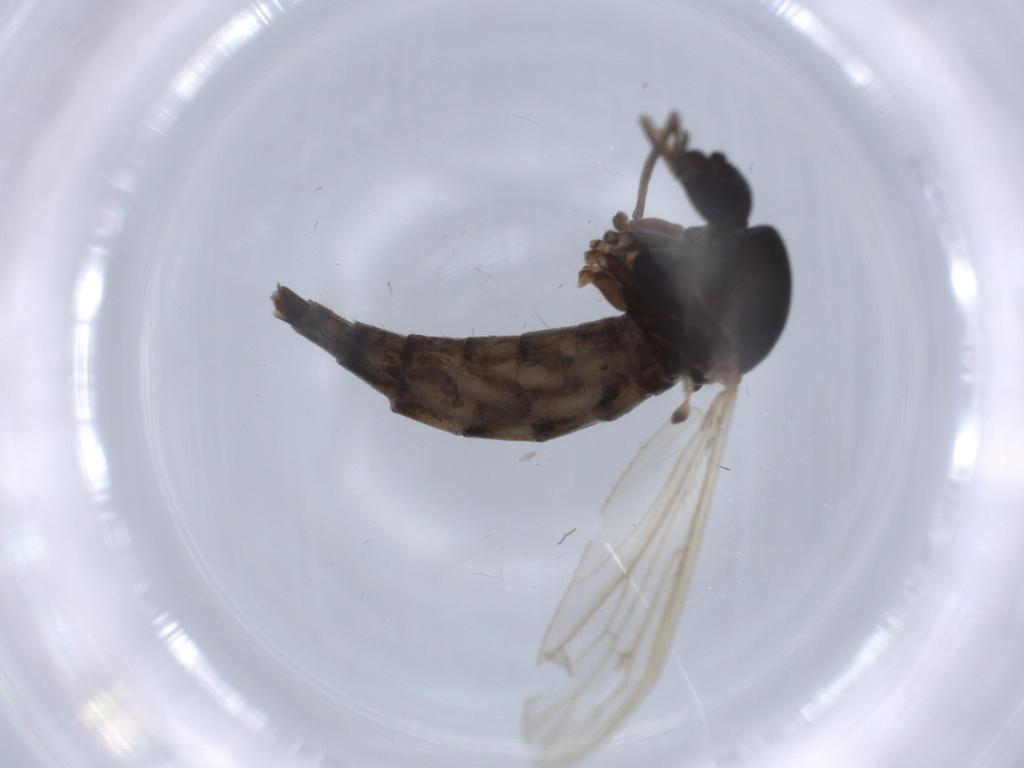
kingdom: Animalia
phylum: Arthropoda
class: Insecta
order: Diptera
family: Syrphidae
